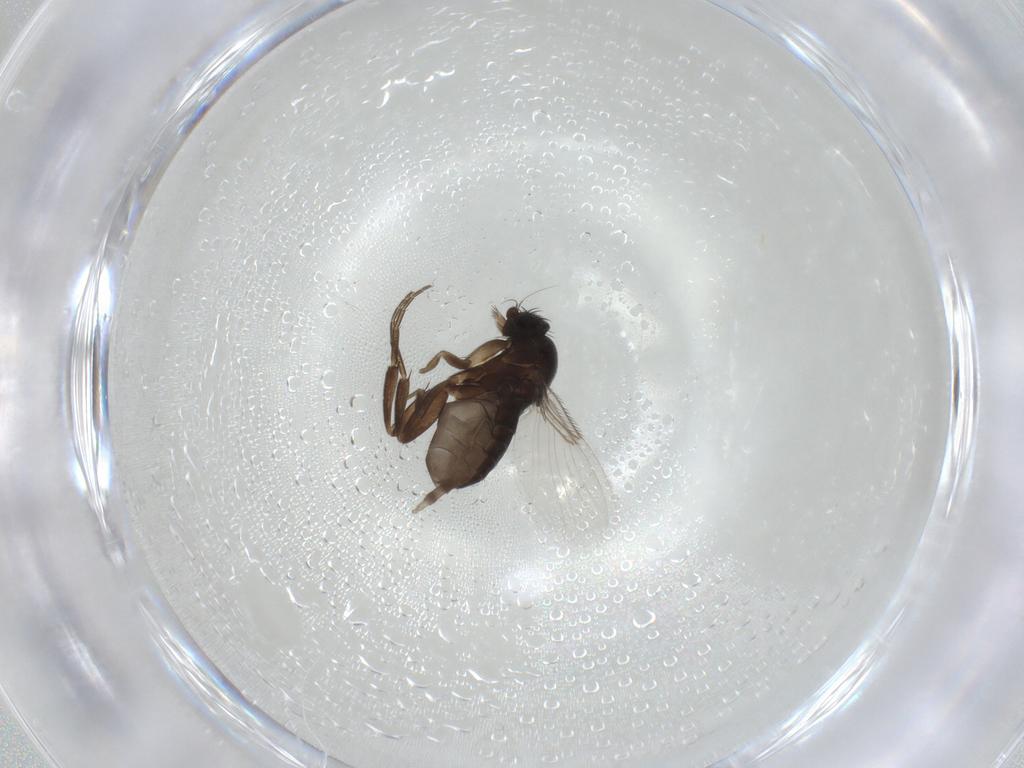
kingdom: Animalia
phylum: Arthropoda
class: Insecta
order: Diptera
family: Phoridae
